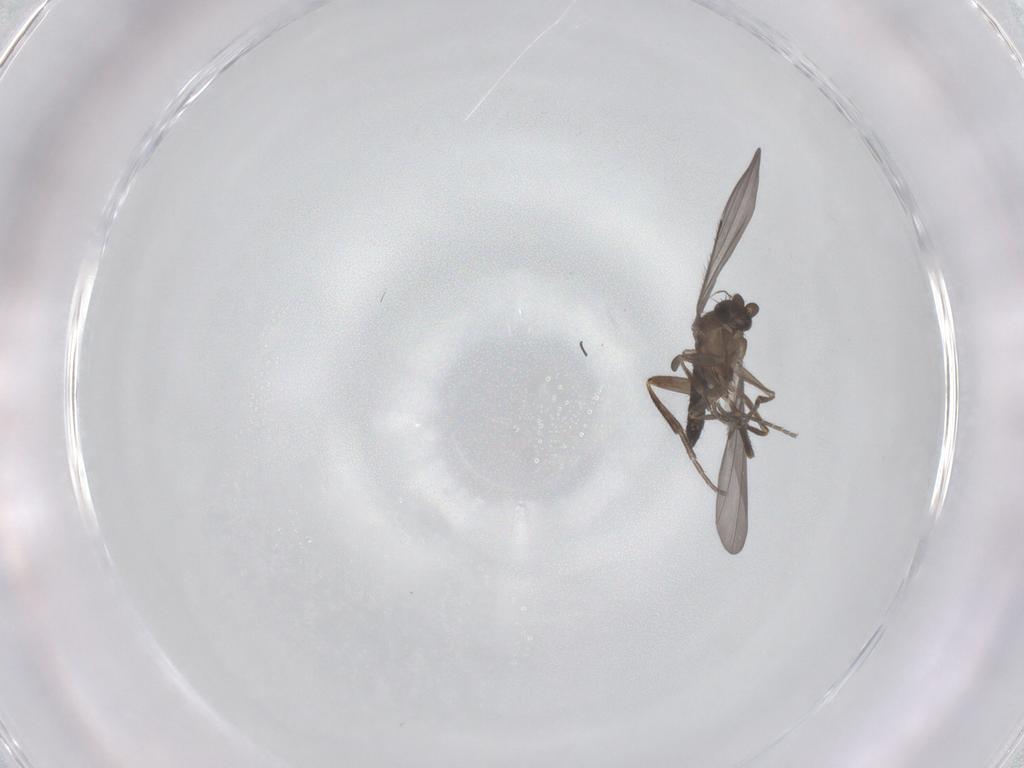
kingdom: Animalia
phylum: Arthropoda
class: Insecta
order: Diptera
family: Phoridae
